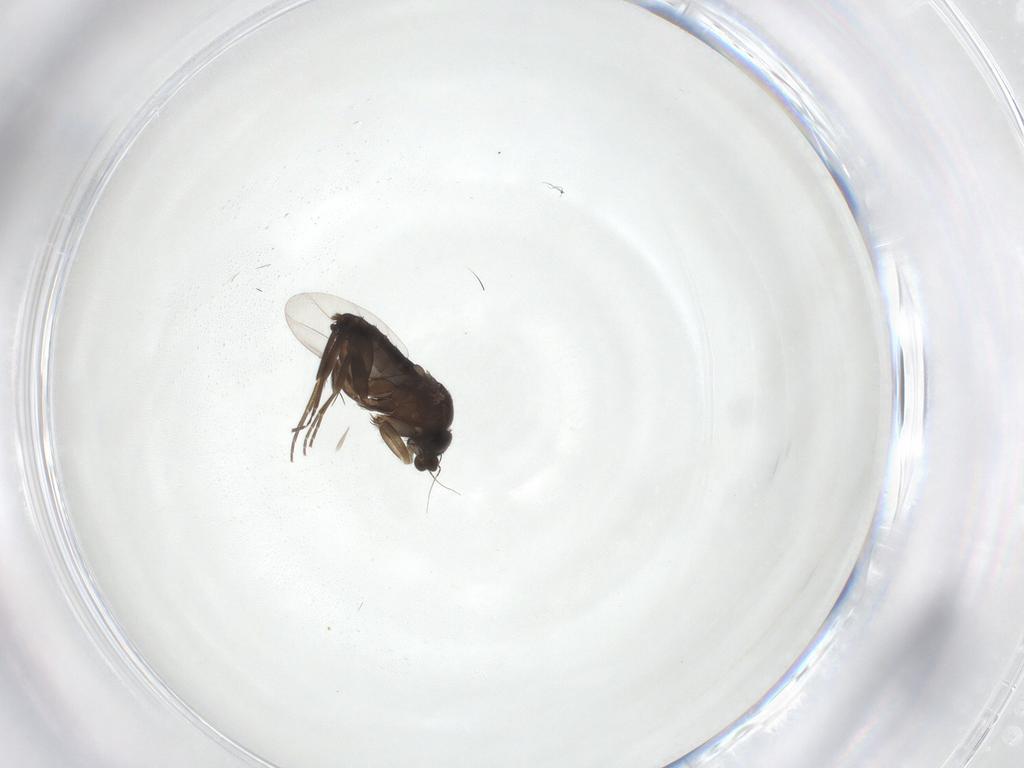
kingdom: Animalia
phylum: Arthropoda
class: Insecta
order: Diptera
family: Phoridae
